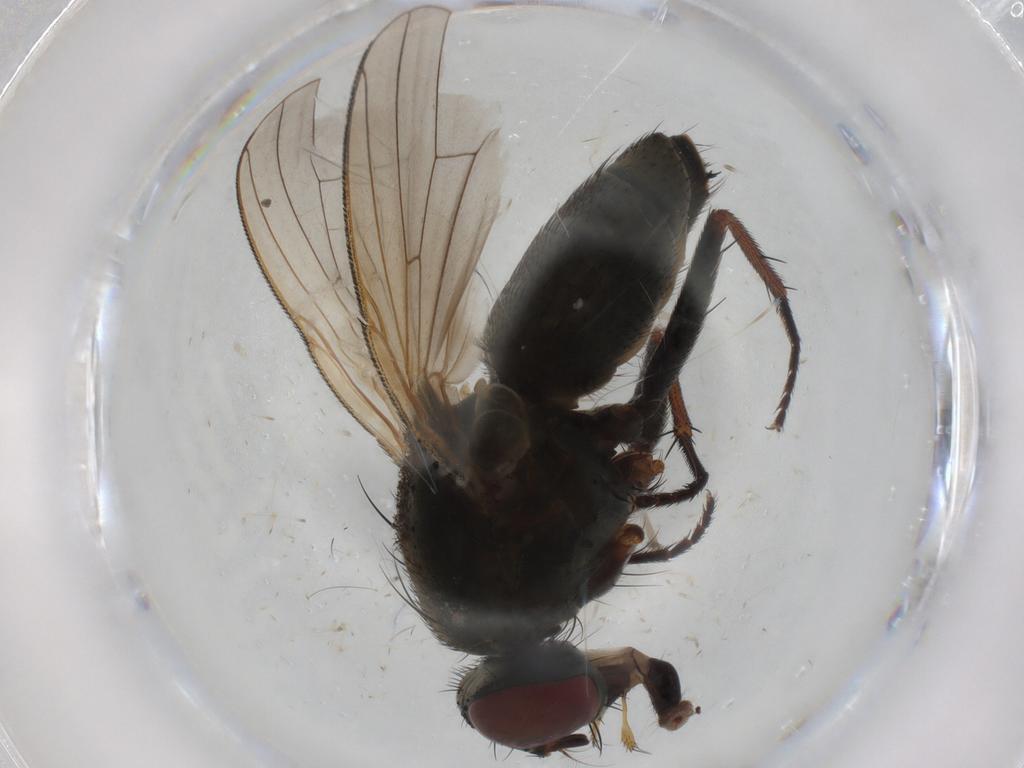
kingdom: Animalia
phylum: Arthropoda
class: Insecta
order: Diptera
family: Muscidae
